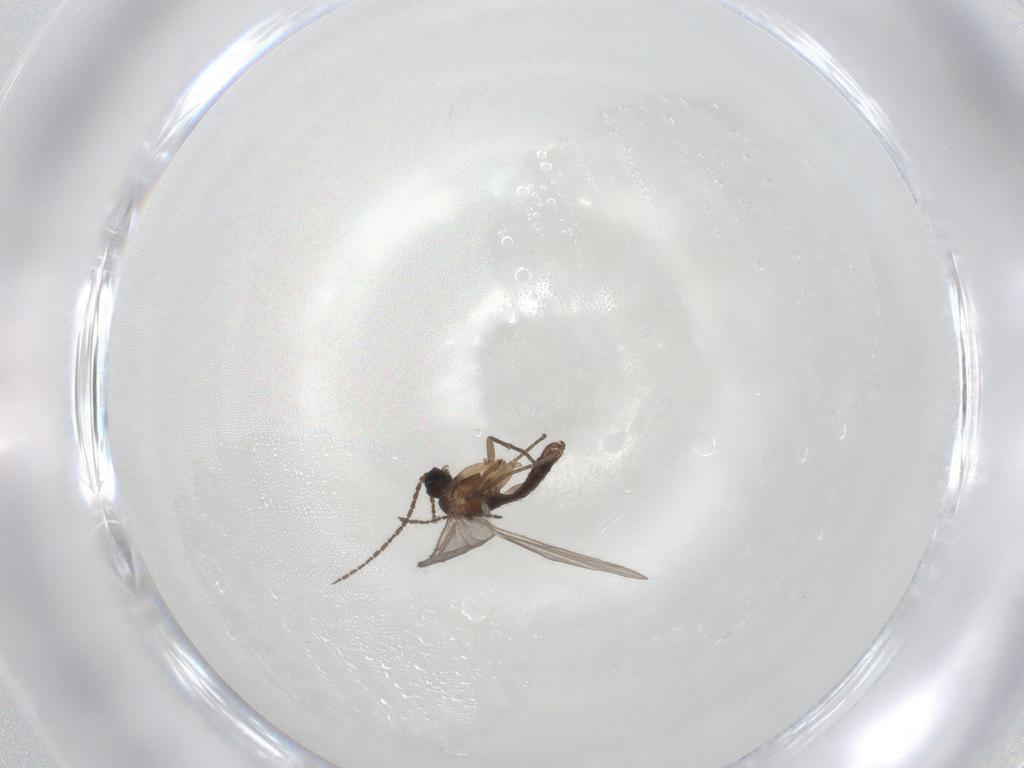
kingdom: Animalia
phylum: Arthropoda
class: Insecta
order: Diptera
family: Sciaridae
